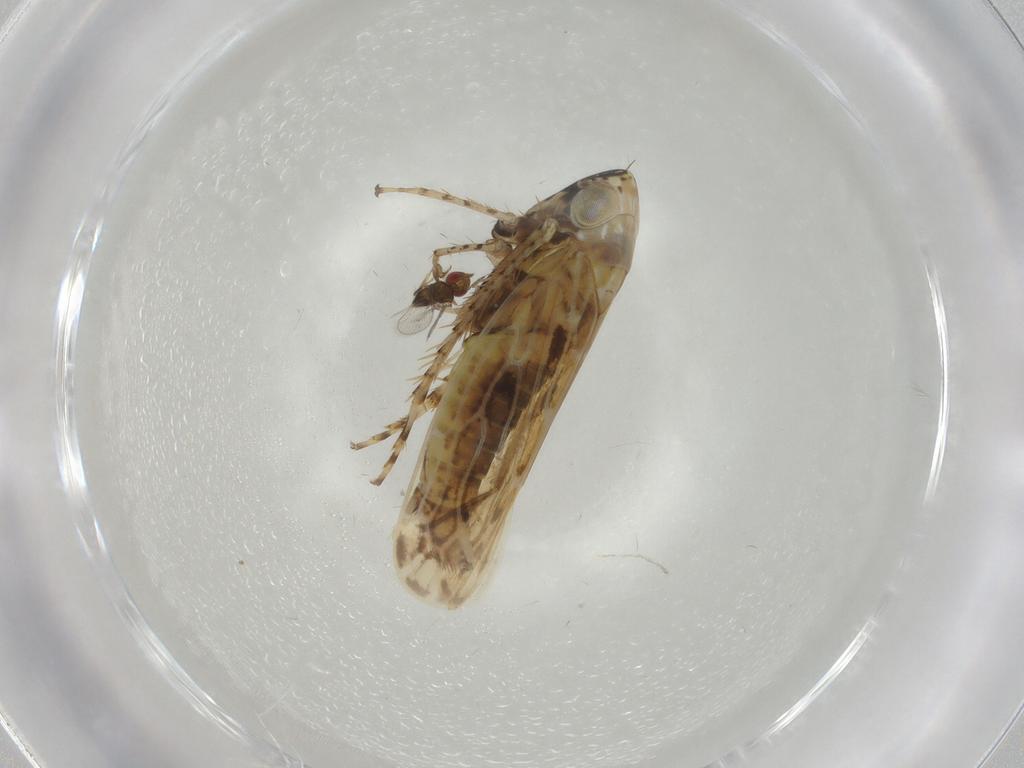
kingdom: Animalia
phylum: Arthropoda
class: Insecta
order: Hemiptera
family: Cicadellidae
